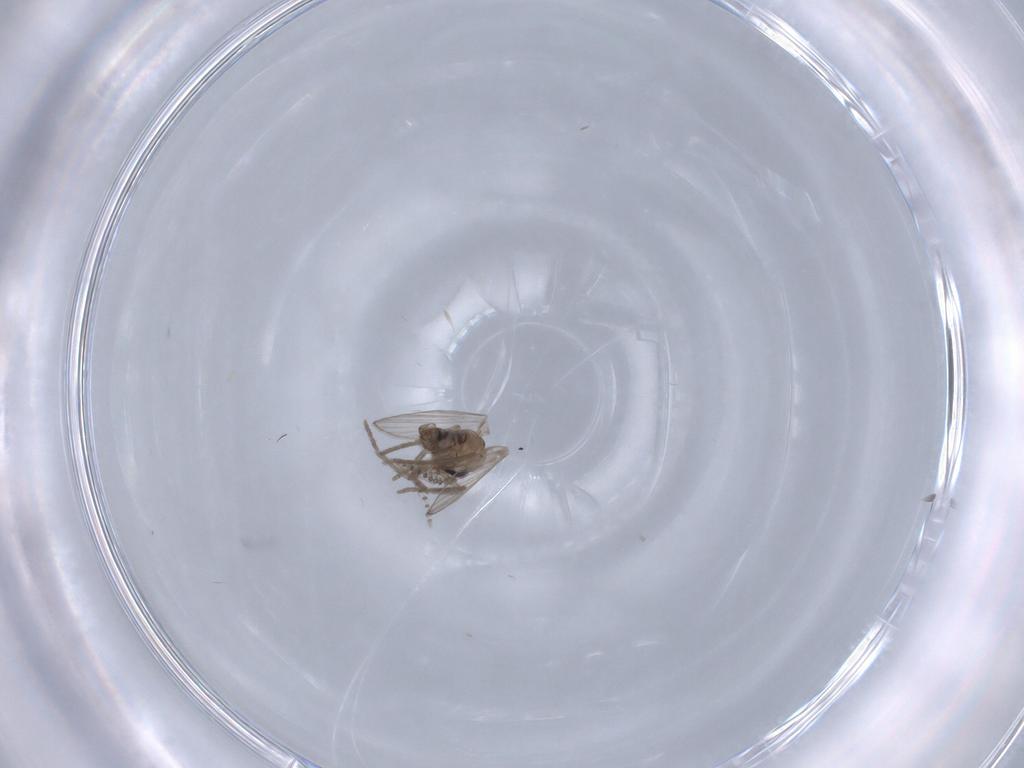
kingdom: Animalia
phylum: Arthropoda
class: Insecta
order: Diptera
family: Psychodidae
